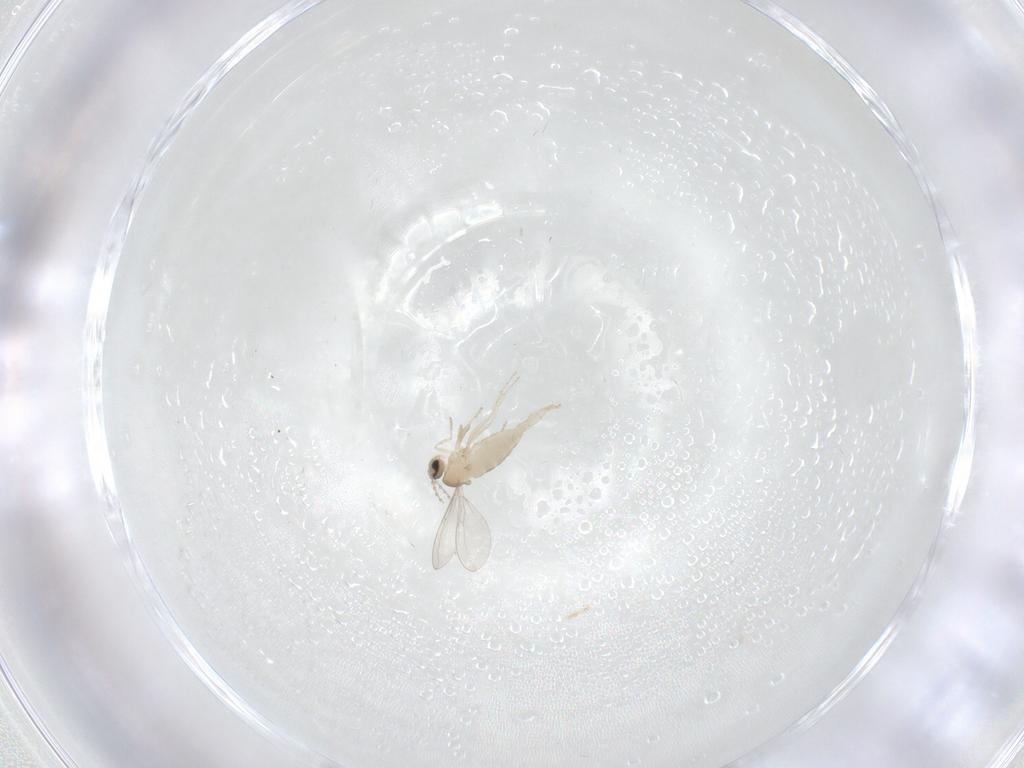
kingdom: Animalia
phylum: Arthropoda
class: Insecta
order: Diptera
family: Cecidomyiidae
